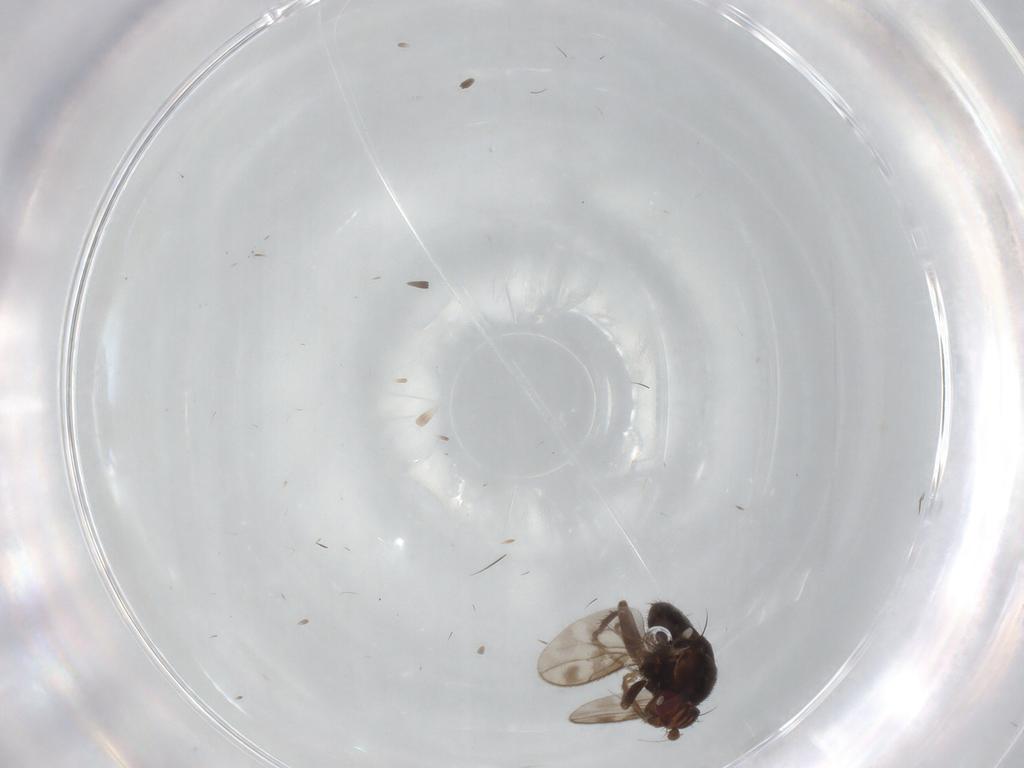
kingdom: Animalia
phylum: Arthropoda
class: Insecta
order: Diptera
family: Sphaeroceridae
